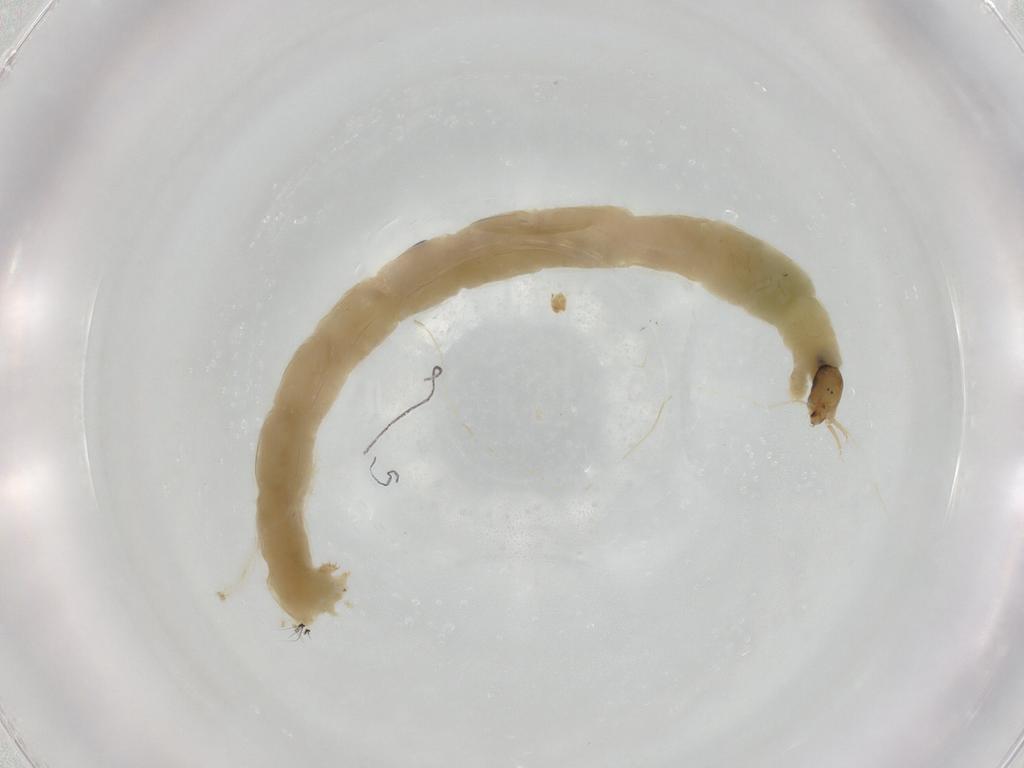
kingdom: Animalia
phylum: Arthropoda
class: Insecta
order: Diptera
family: Chironomidae
